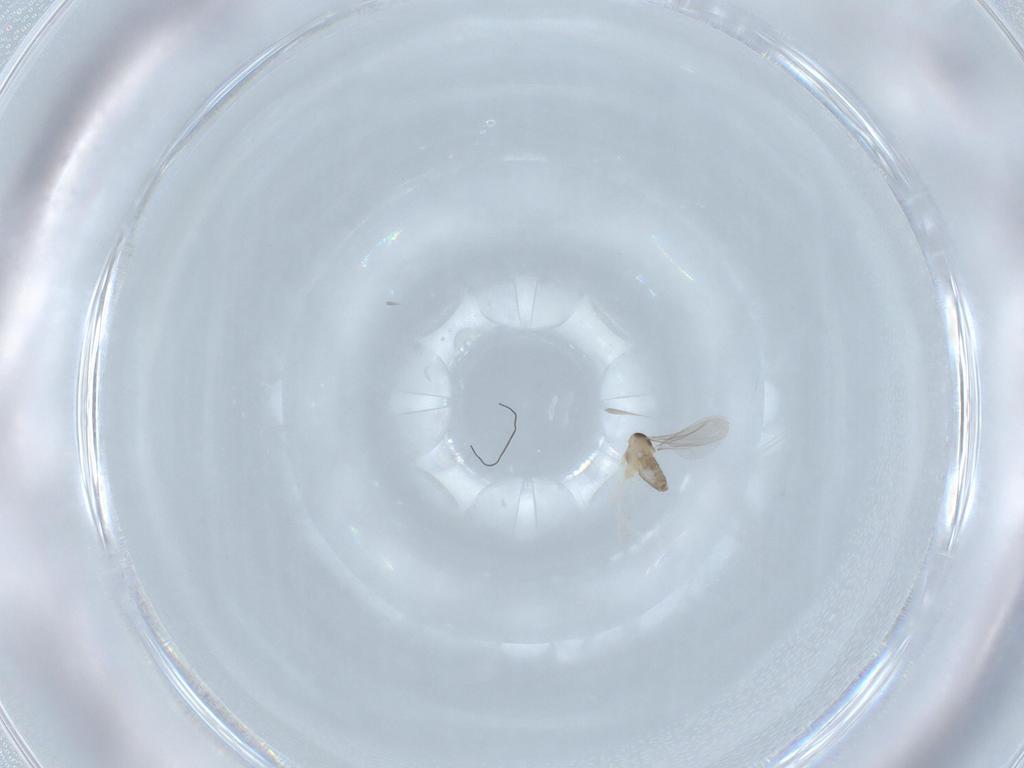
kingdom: Animalia
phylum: Arthropoda
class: Insecta
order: Diptera
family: Cecidomyiidae
